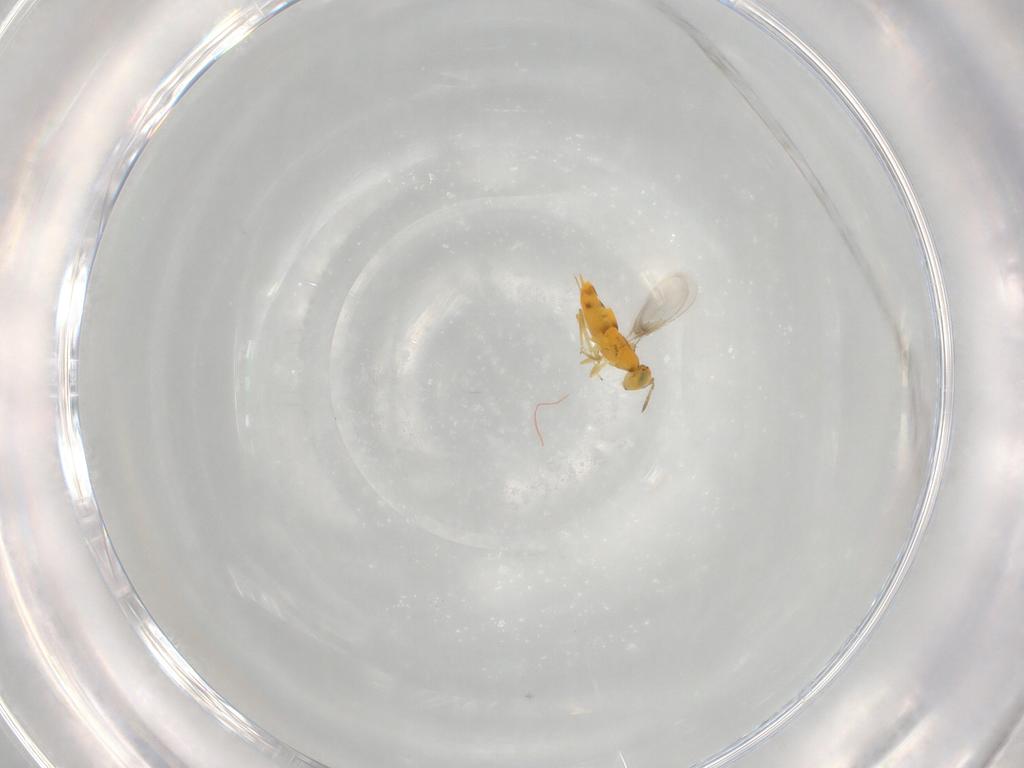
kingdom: Animalia
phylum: Arthropoda
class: Insecta
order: Hymenoptera
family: Aphelinidae
